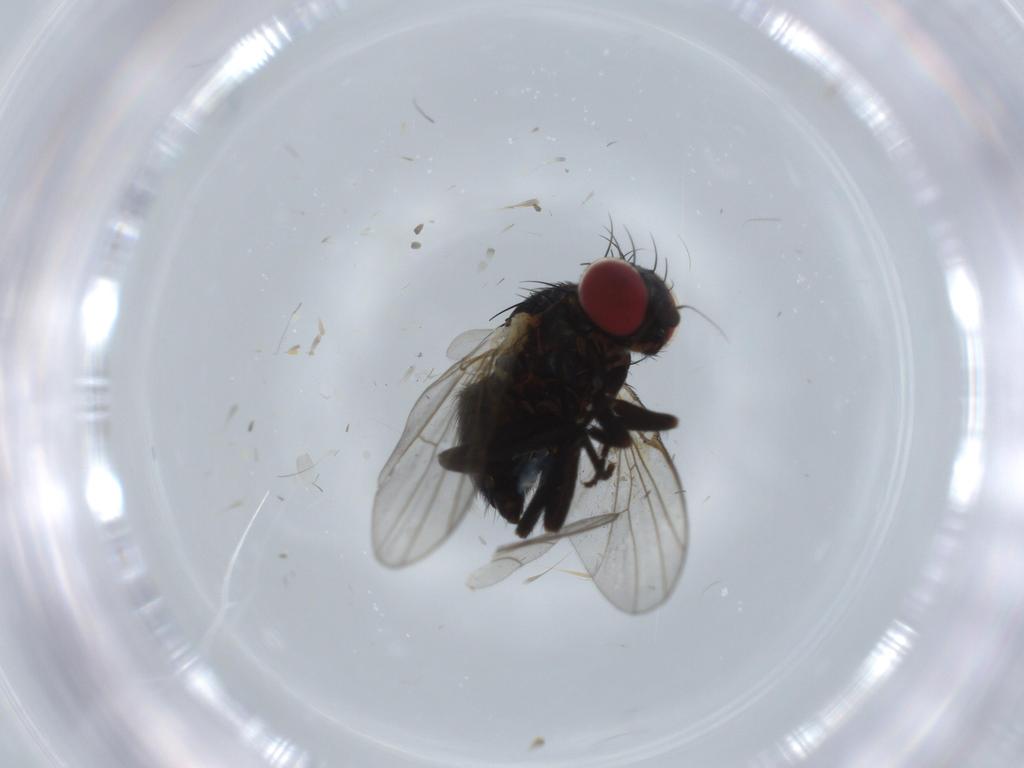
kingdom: Animalia
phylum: Arthropoda
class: Insecta
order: Diptera
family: Agromyzidae
